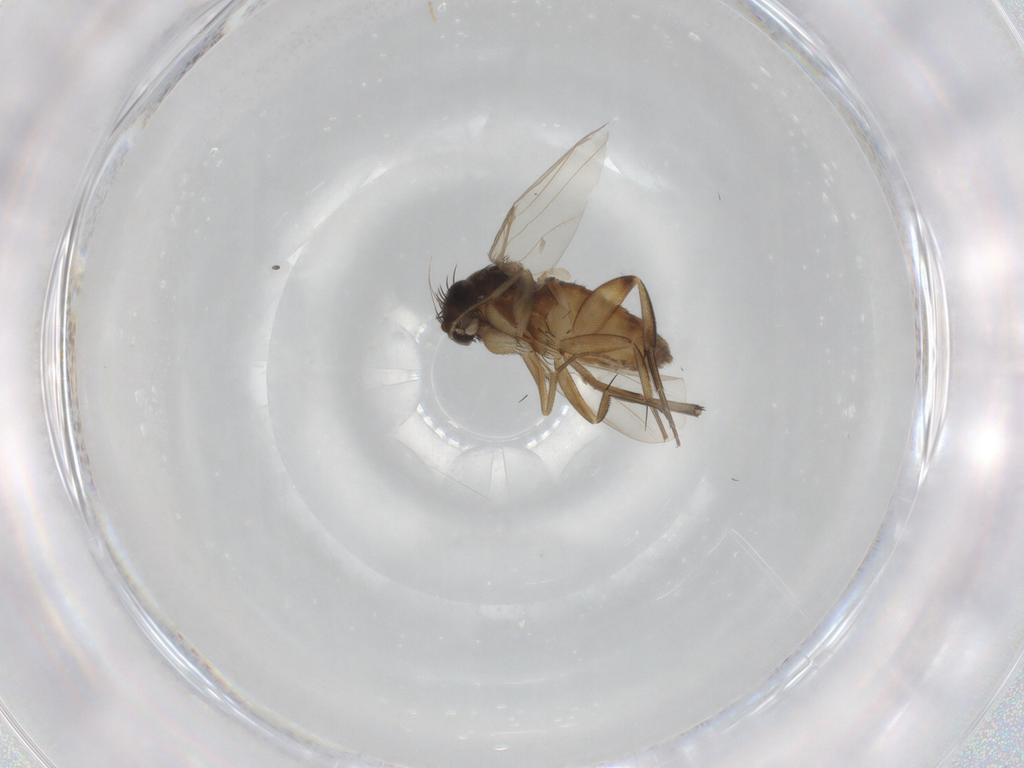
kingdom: Animalia
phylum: Arthropoda
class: Insecta
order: Diptera
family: Phoridae
